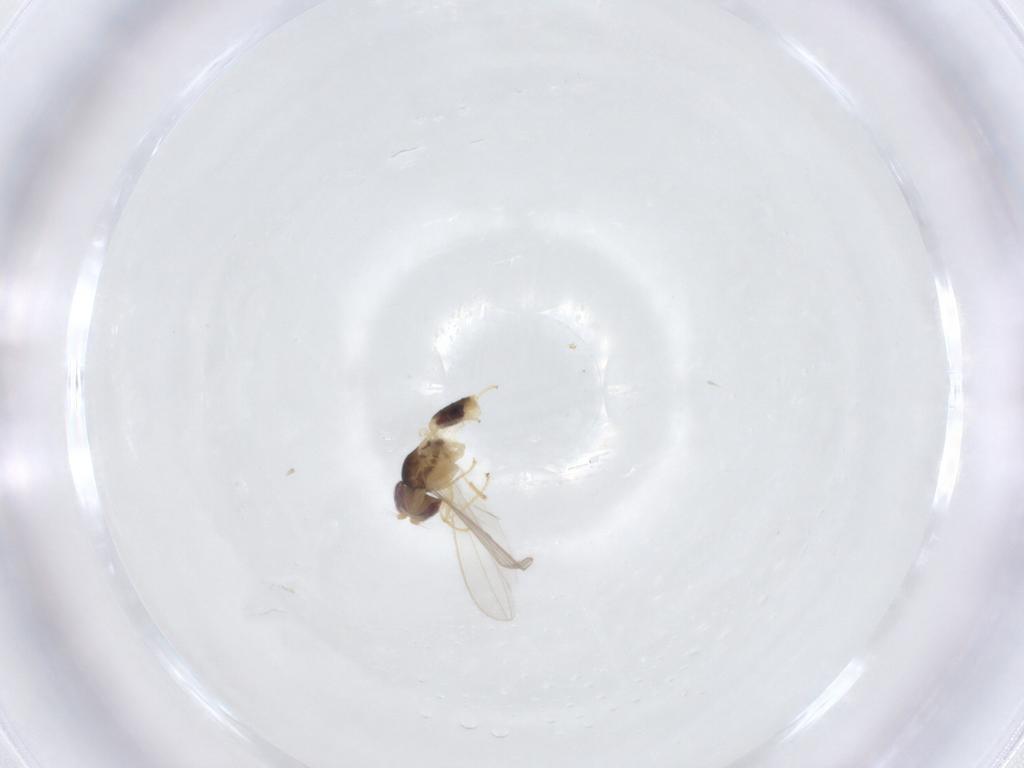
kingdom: Animalia
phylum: Arthropoda
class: Insecta
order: Diptera
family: Asteiidae
